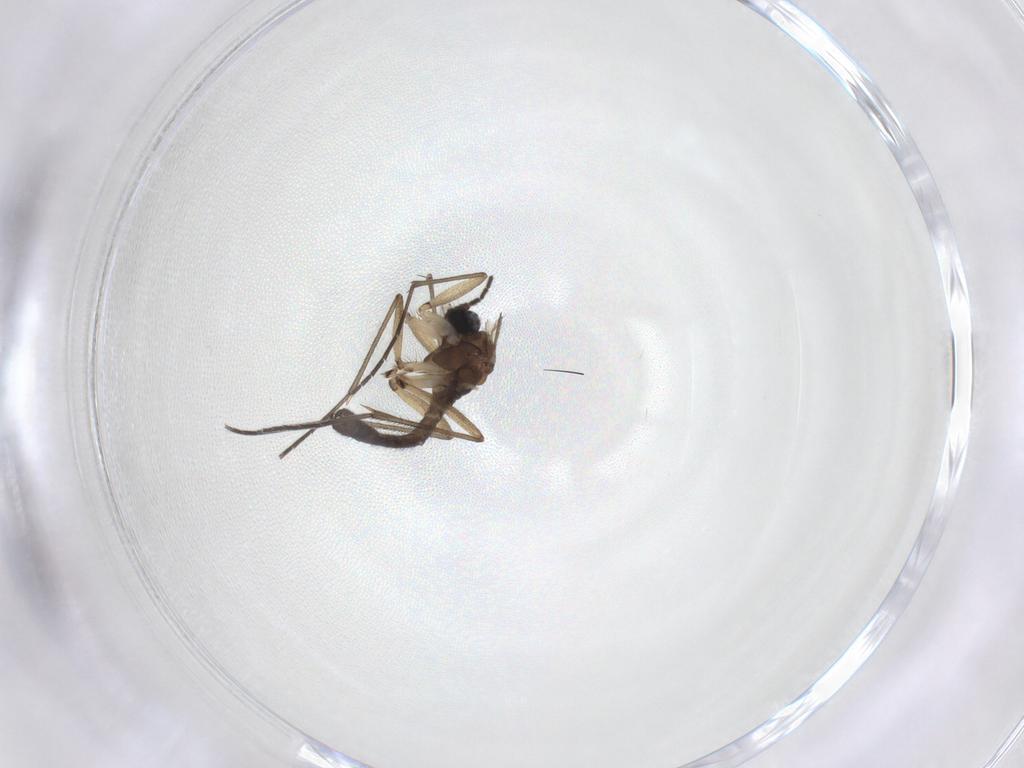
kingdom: Animalia
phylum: Arthropoda
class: Insecta
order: Diptera
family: Sciaridae
